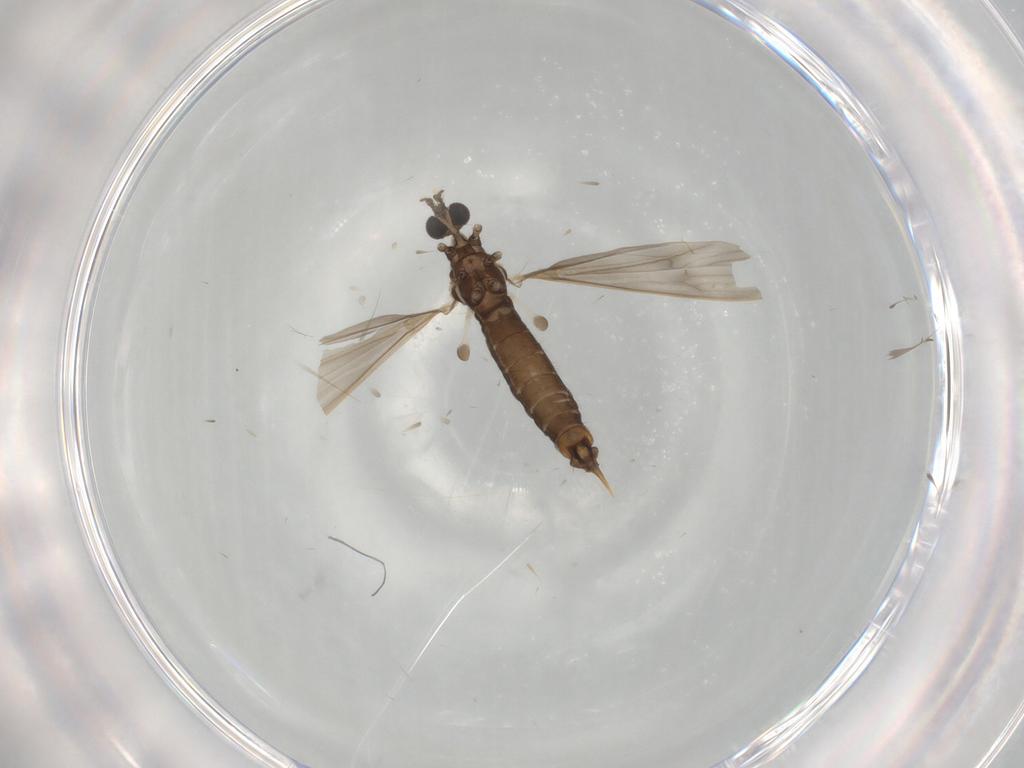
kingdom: Animalia
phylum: Arthropoda
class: Insecta
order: Diptera
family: Limoniidae
